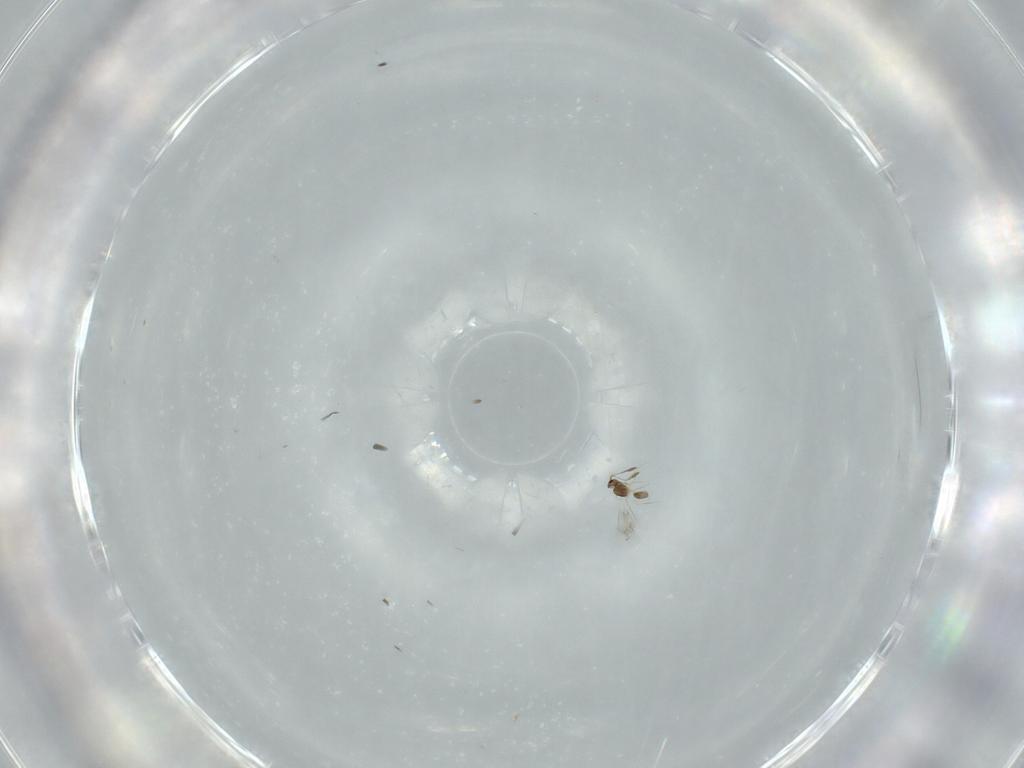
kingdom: Animalia
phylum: Arthropoda
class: Insecta
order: Hymenoptera
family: Mymarommatidae
